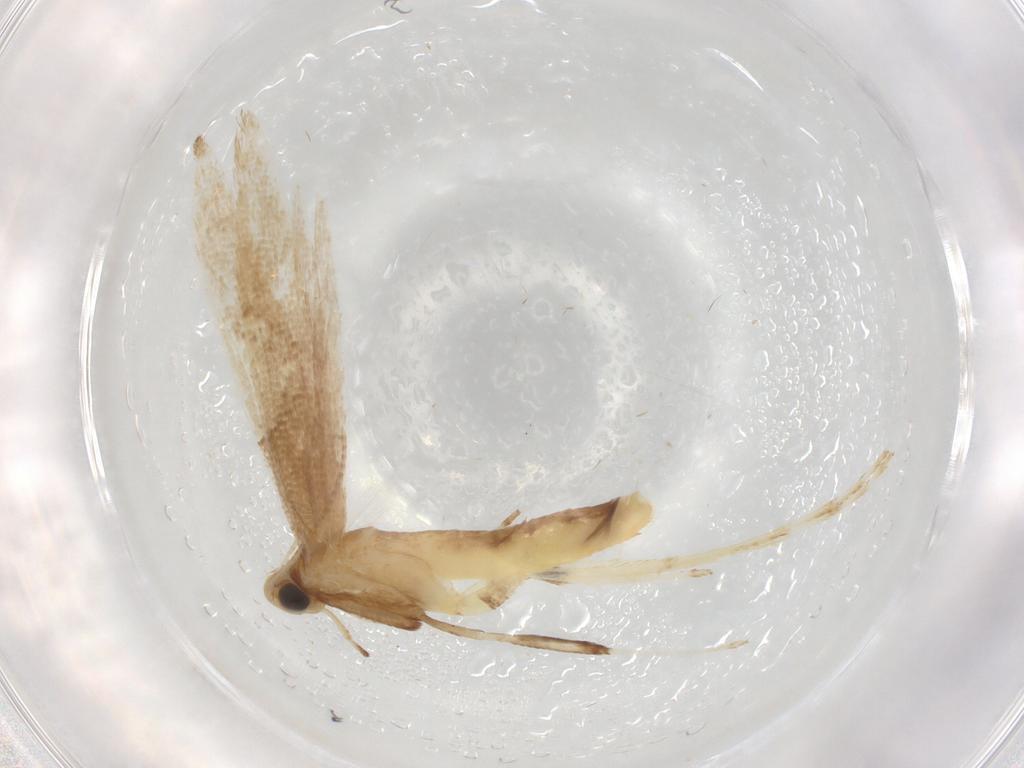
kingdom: Animalia
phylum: Arthropoda
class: Insecta
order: Lepidoptera
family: Gracillariidae
